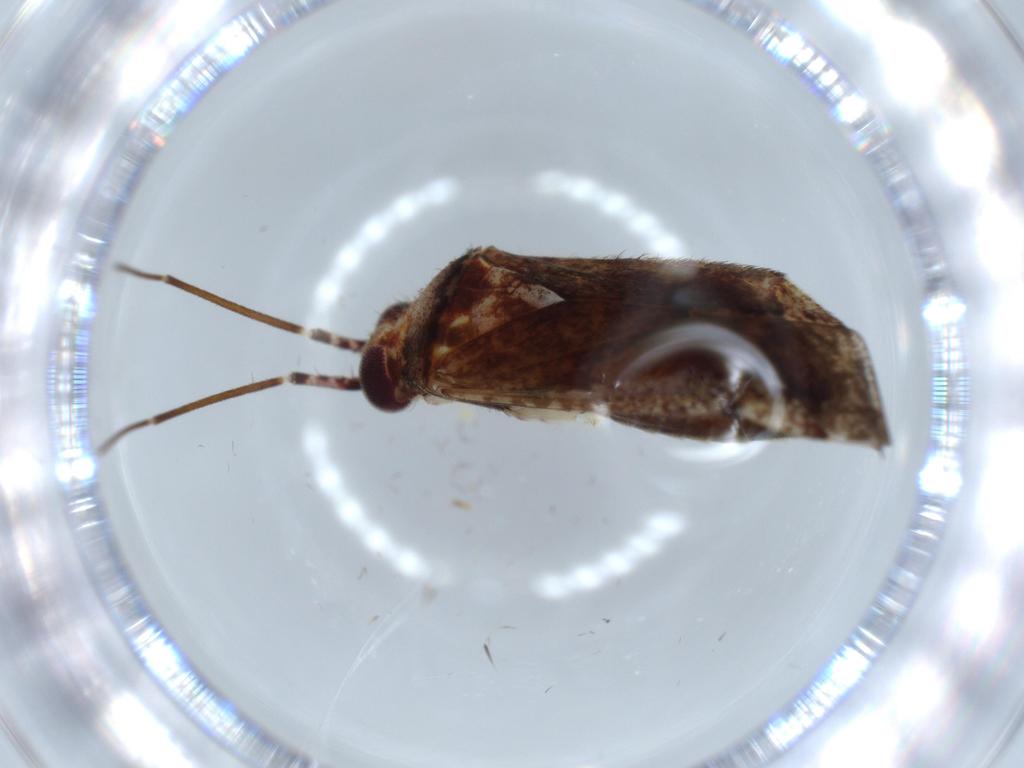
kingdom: Animalia
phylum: Arthropoda
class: Insecta
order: Hemiptera
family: Miridae
